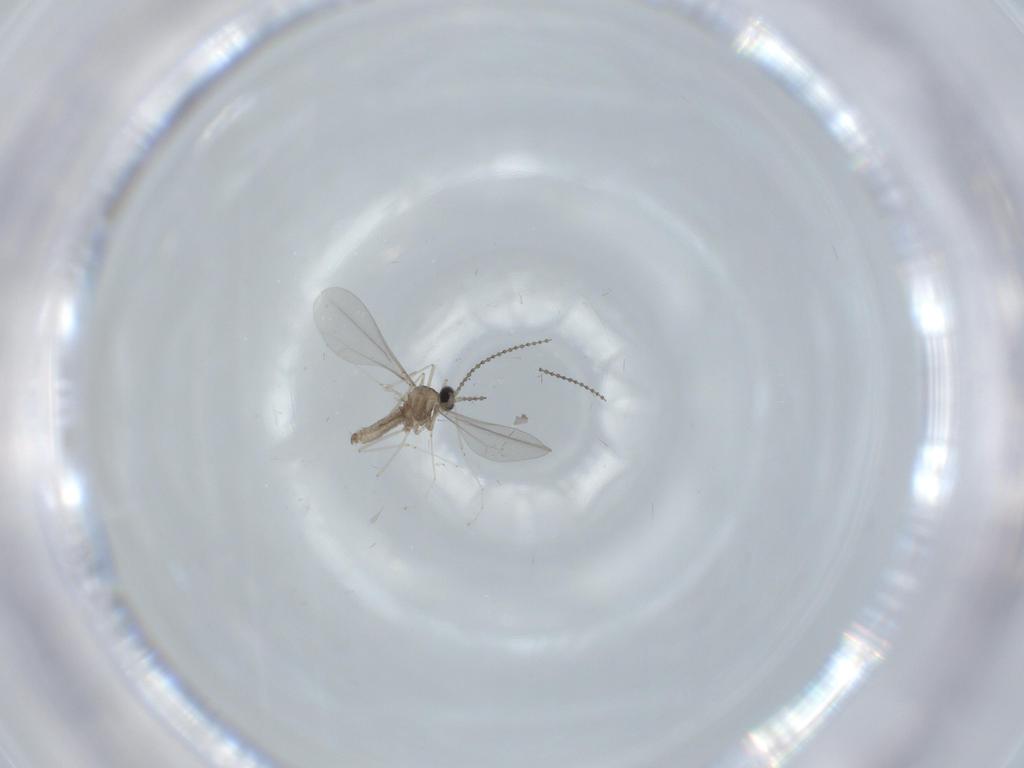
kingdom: Animalia
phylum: Arthropoda
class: Insecta
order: Diptera
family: Cecidomyiidae
